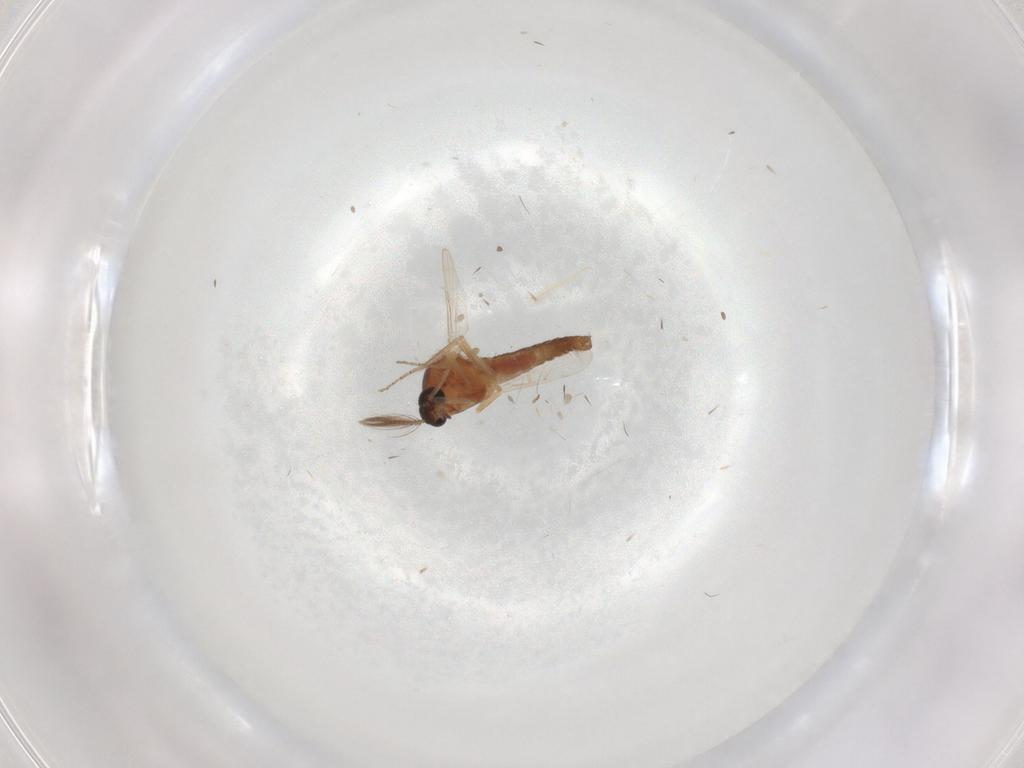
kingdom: Animalia
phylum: Arthropoda
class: Insecta
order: Diptera
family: Ceratopogonidae
